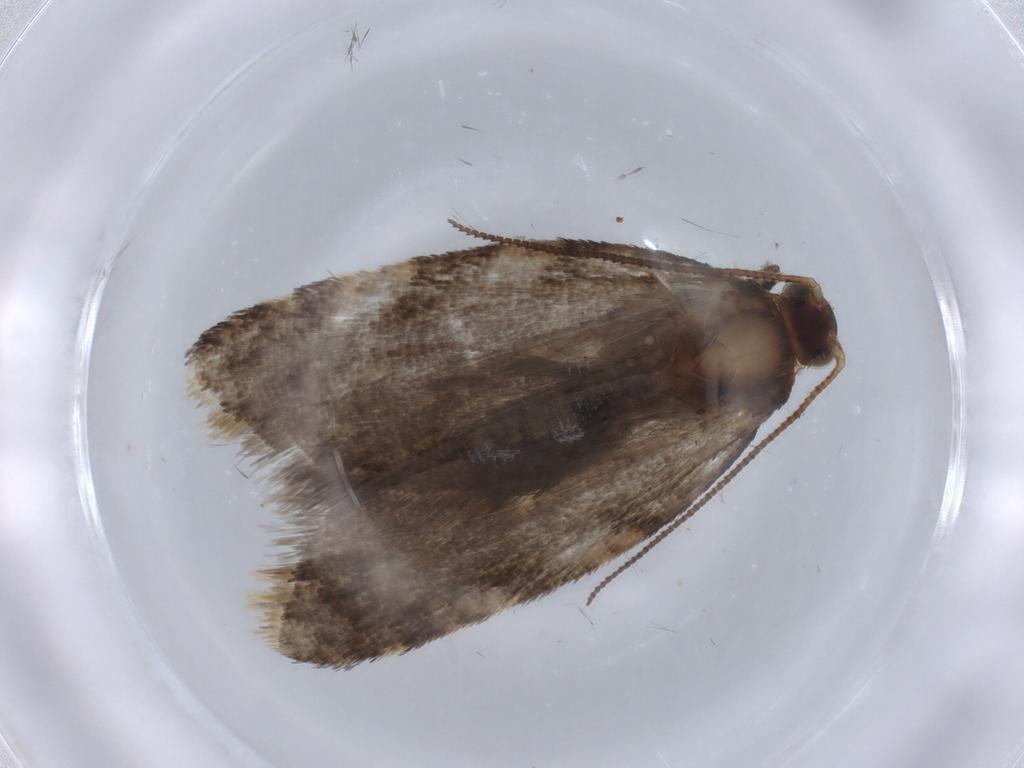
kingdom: Animalia
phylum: Arthropoda
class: Insecta
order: Lepidoptera
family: Tortricidae
